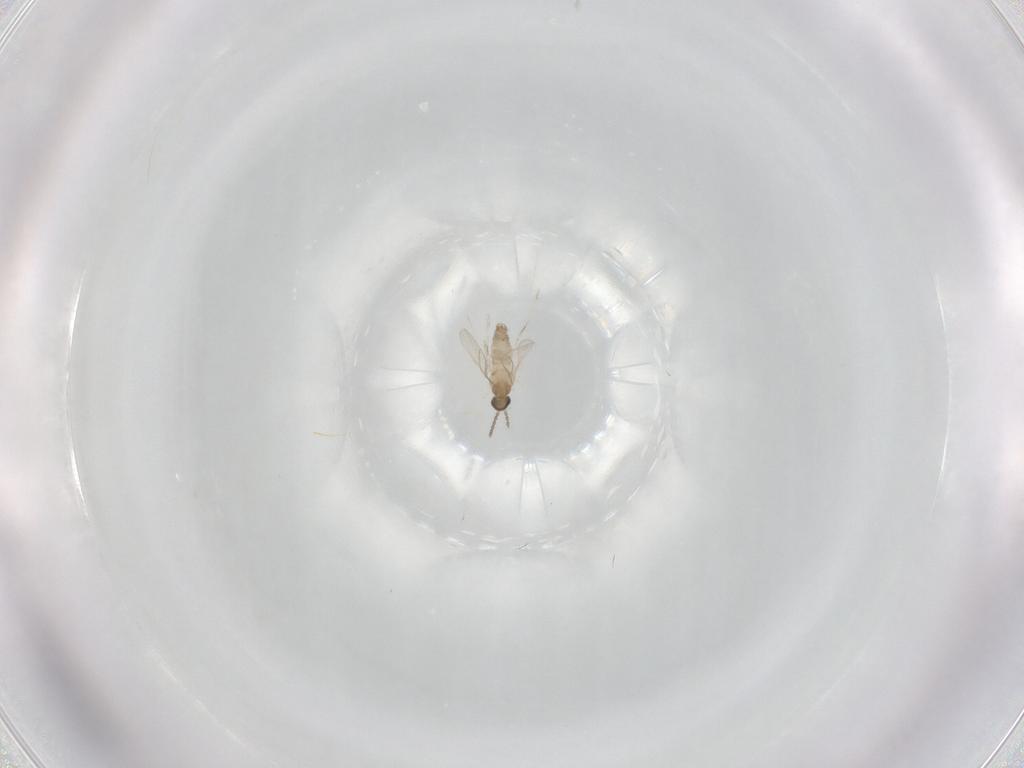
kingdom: Animalia
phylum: Arthropoda
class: Insecta
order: Diptera
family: Cecidomyiidae
